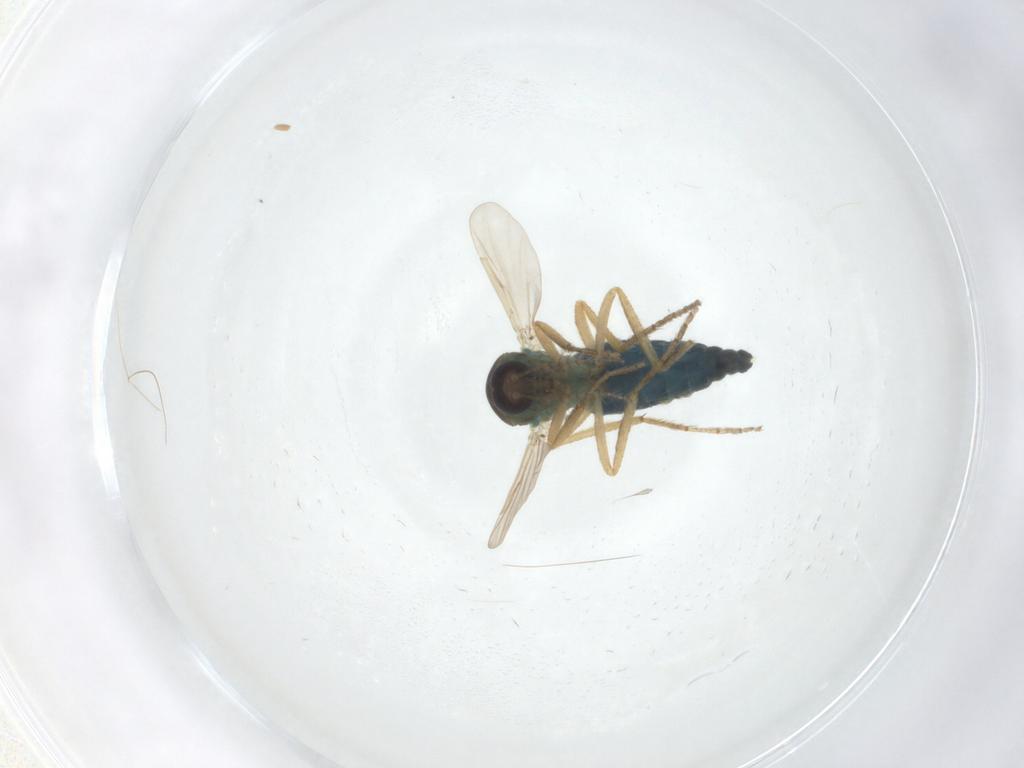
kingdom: Animalia
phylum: Arthropoda
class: Insecta
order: Diptera
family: Ceratopogonidae
